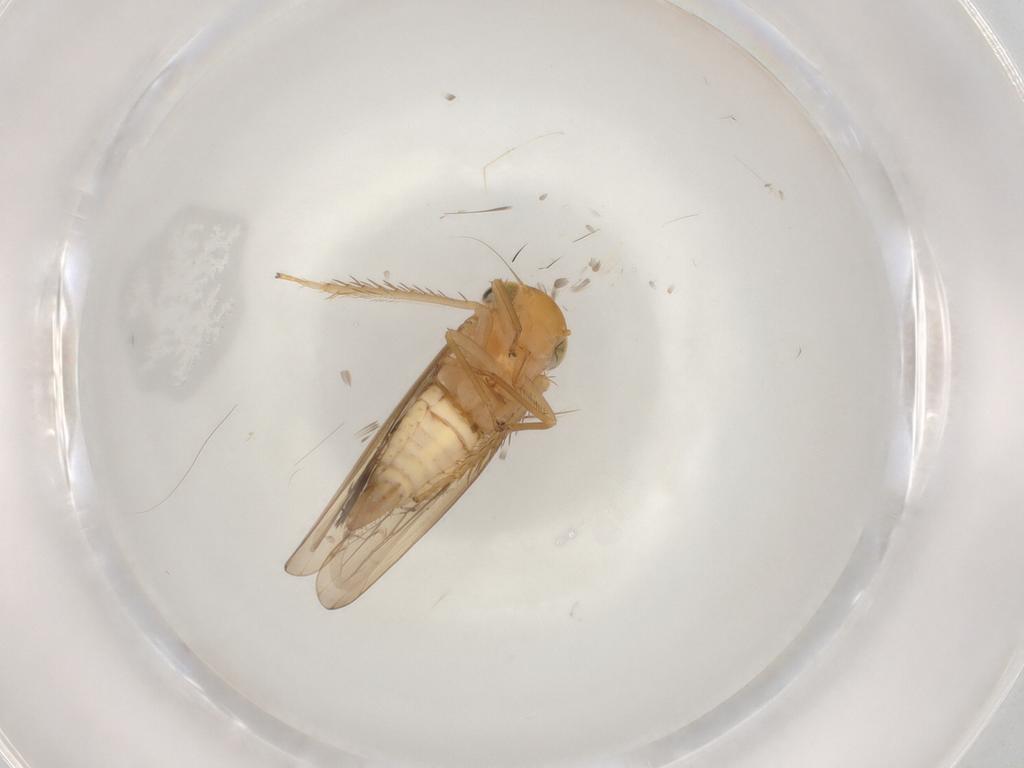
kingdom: Animalia
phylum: Arthropoda
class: Insecta
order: Hemiptera
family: Cicadellidae
